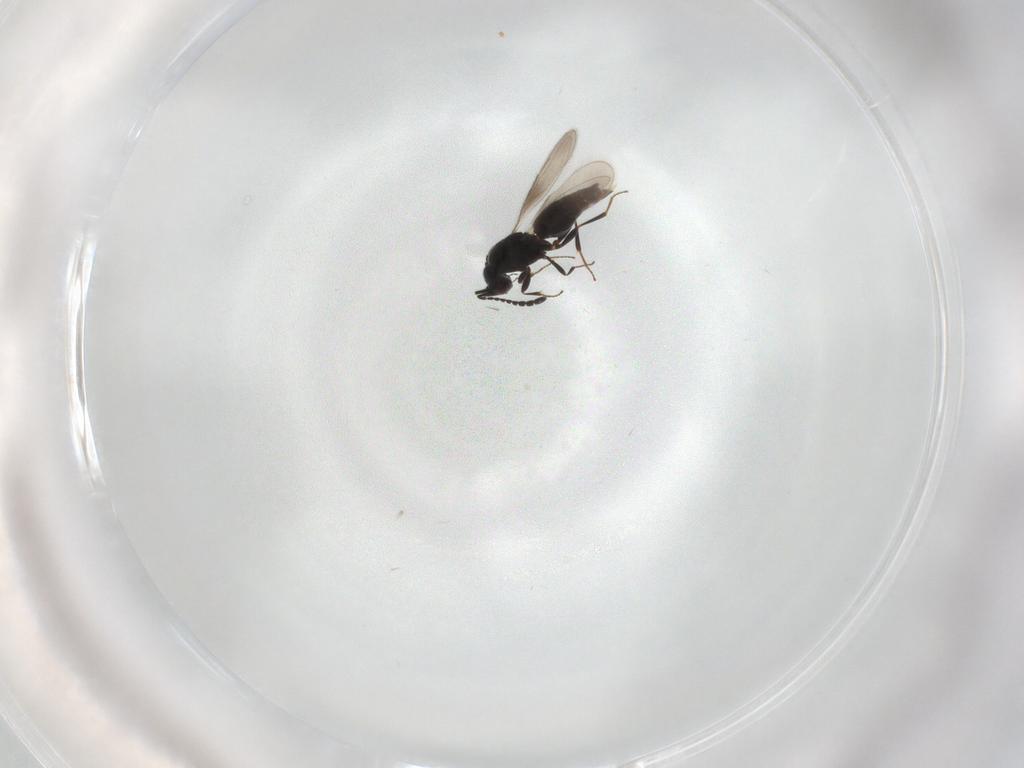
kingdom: Animalia
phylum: Arthropoda
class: Insecta
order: Hymenoptera
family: Ceraphronidae
